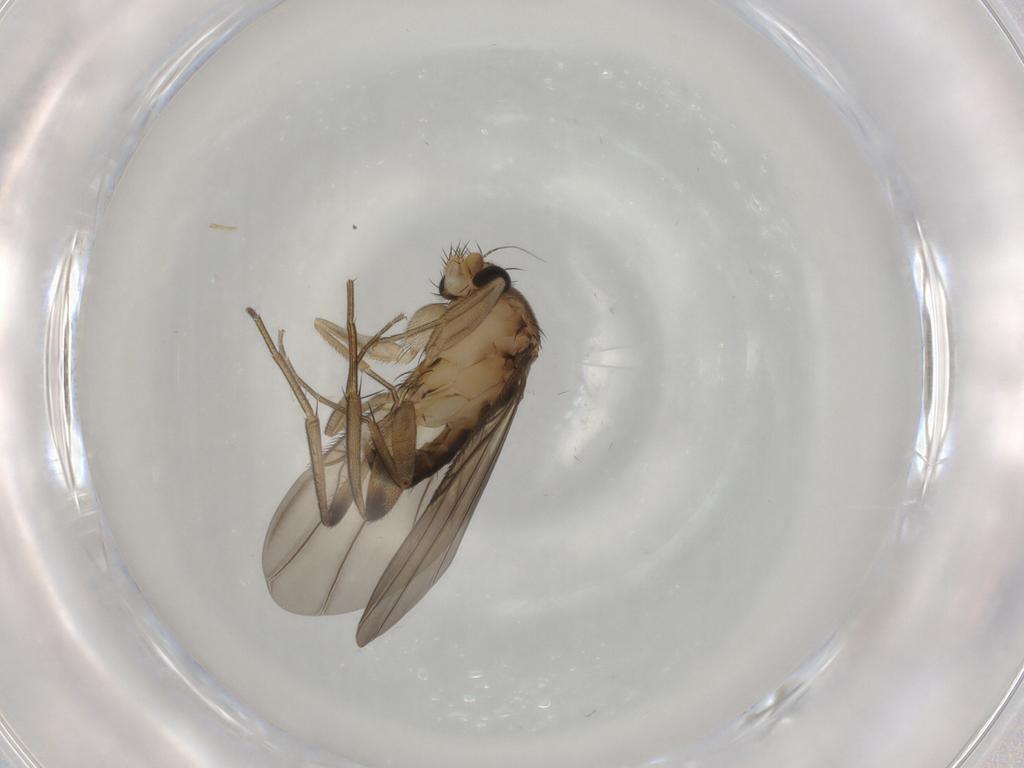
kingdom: Animalia
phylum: Arthropoda
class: Insecta
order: Diptera
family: Phoridae
